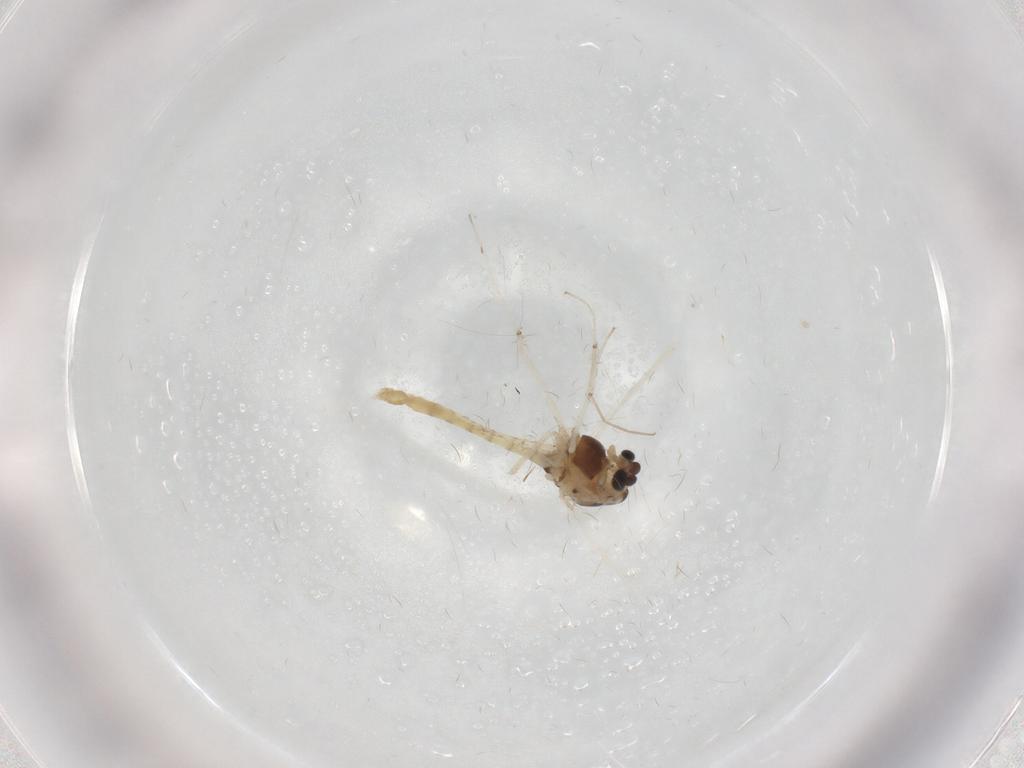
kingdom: Animalia
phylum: Arthropoda
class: Insecta
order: Diptera
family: Chironomidae
